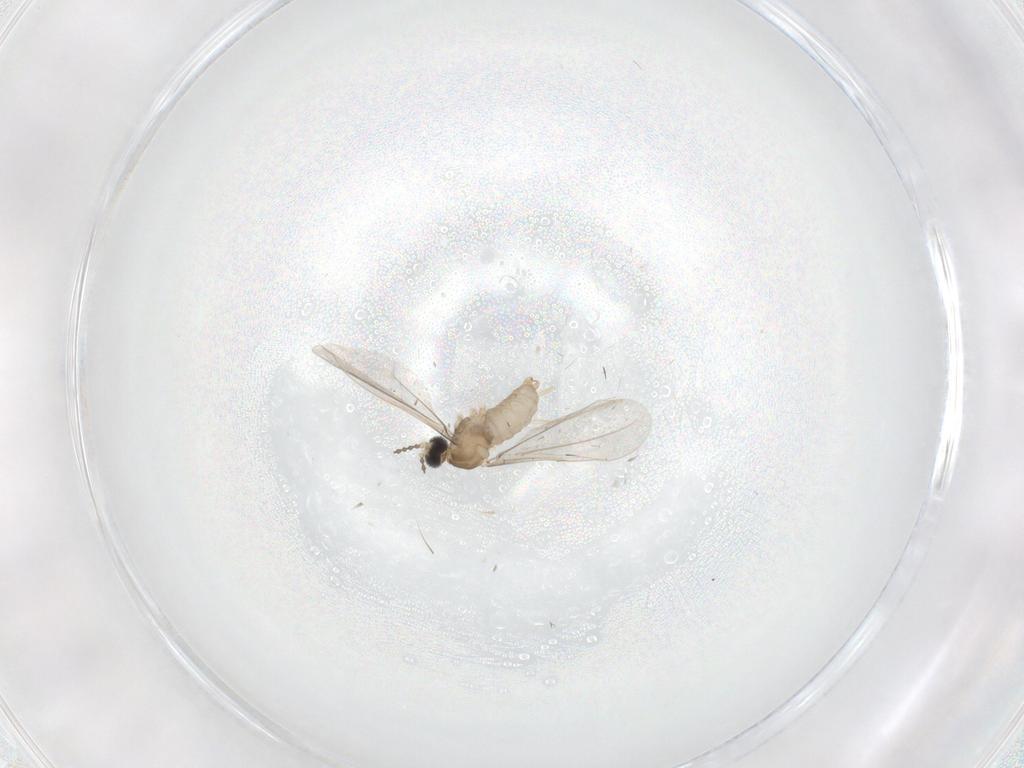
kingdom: Animalia
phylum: Arthropoda
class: Insecta
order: Diptera
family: Cecidomyiidae
